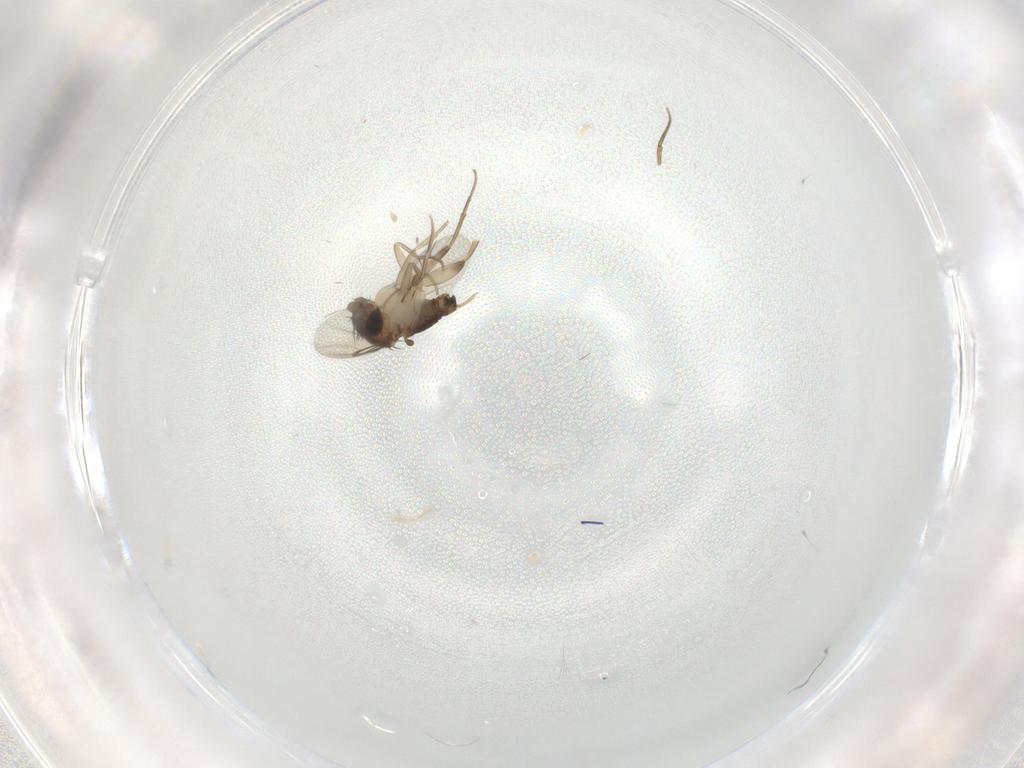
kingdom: Animalia
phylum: Arthropoda
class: Insecta
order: Diptera
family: Phoridae
